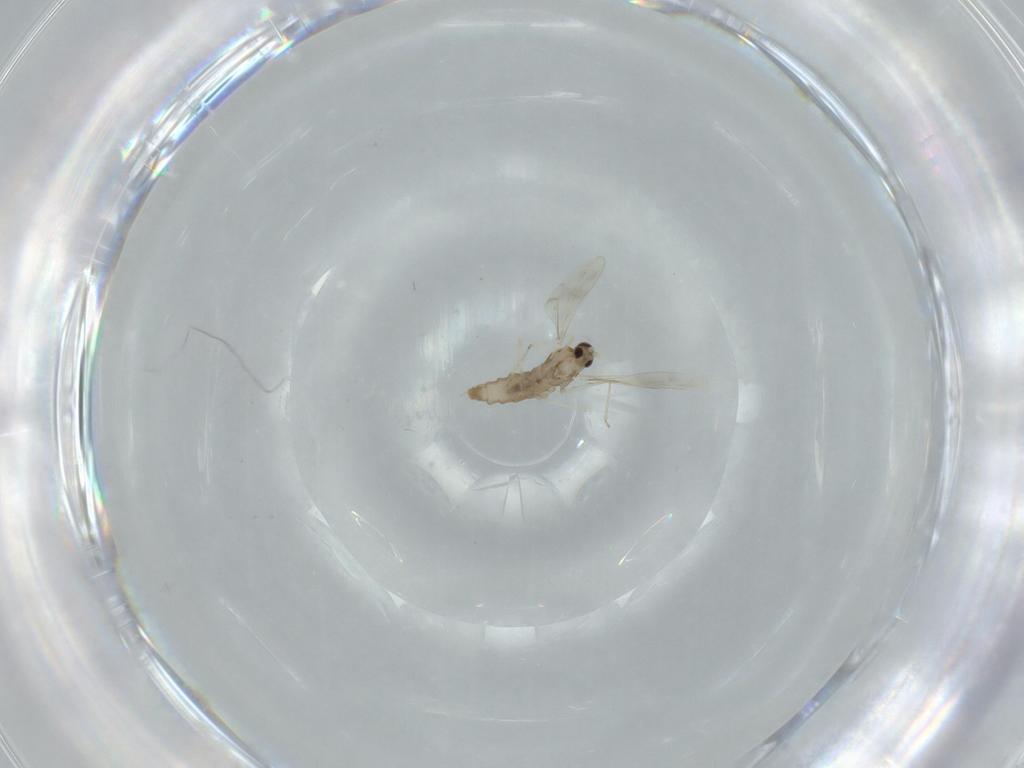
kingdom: Animalia
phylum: Arthropoda
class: Insecta
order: Diptera
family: Cecidomyiidae
